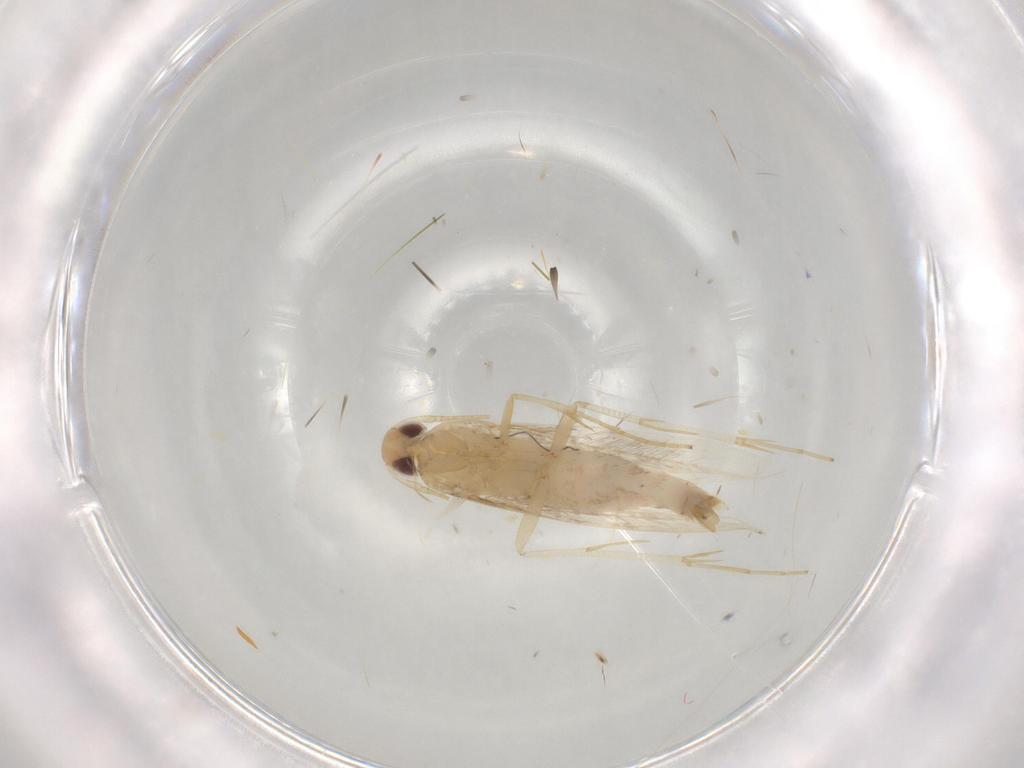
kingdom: Animalia
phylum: Arthropoda
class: Insecta
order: Lepidoptera
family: Cosmopterigidae
